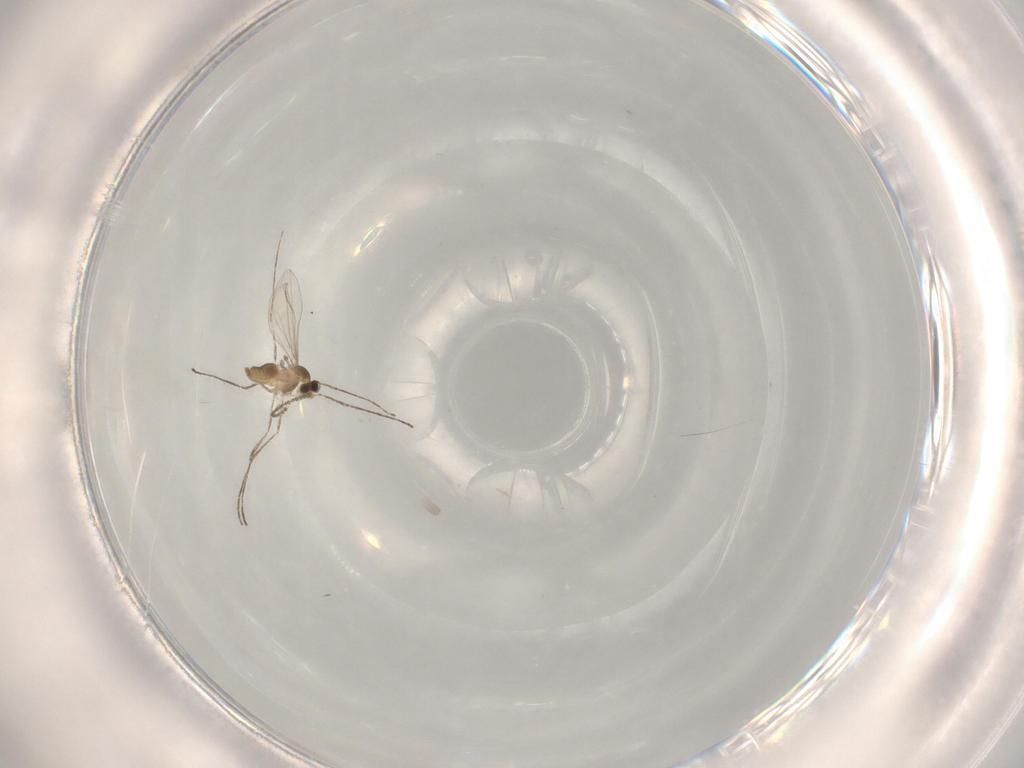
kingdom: Animalia
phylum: Arthropoda
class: Insecta
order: Diptera
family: Cecidomyiidae
